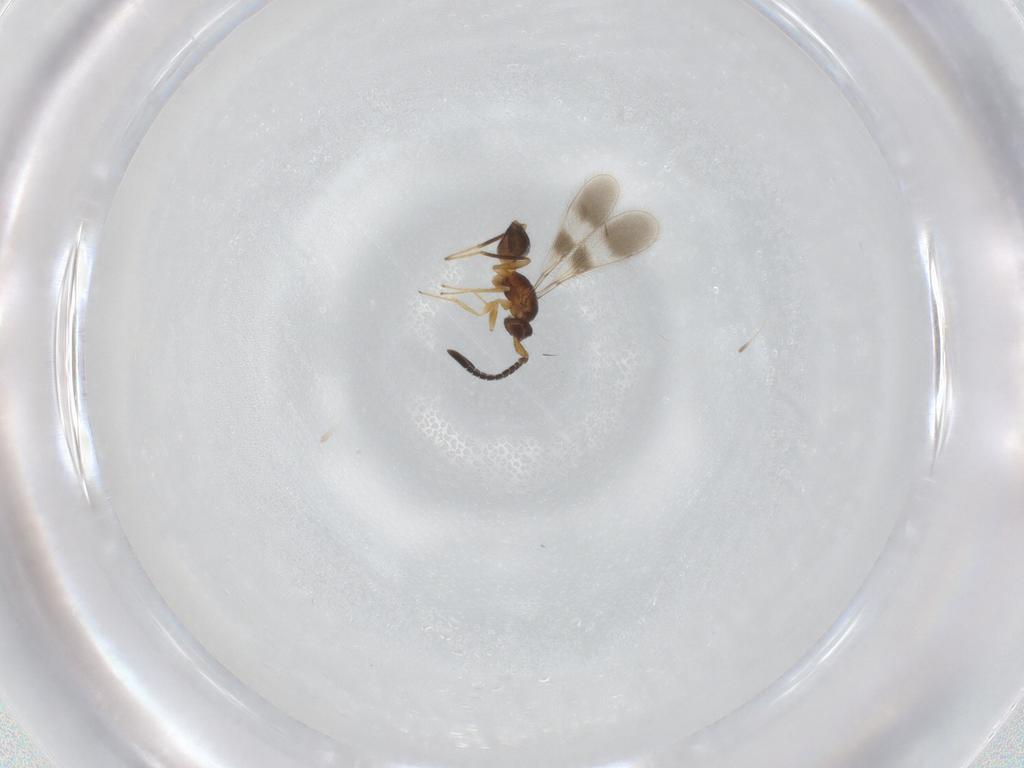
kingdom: Animalia
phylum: Arthropoda
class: Insecta
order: Hymenoptera
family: Mymaridae
